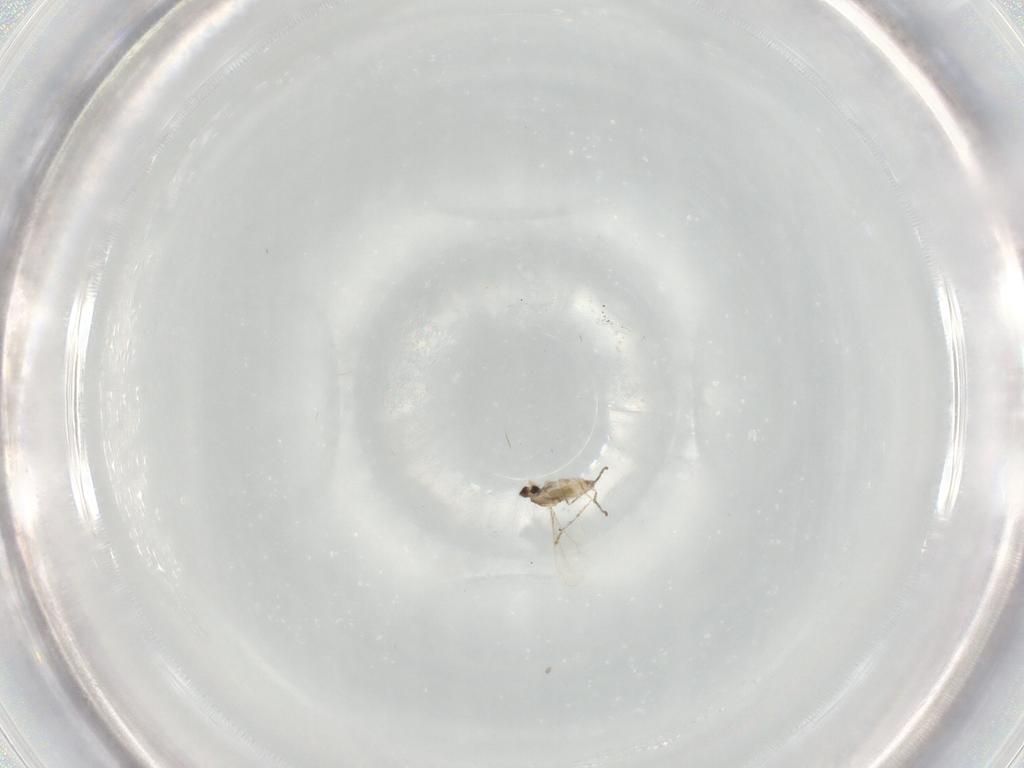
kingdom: Animalia
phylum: Arthropoda
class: Insecta
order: Diptera
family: Cecidomyiidae
